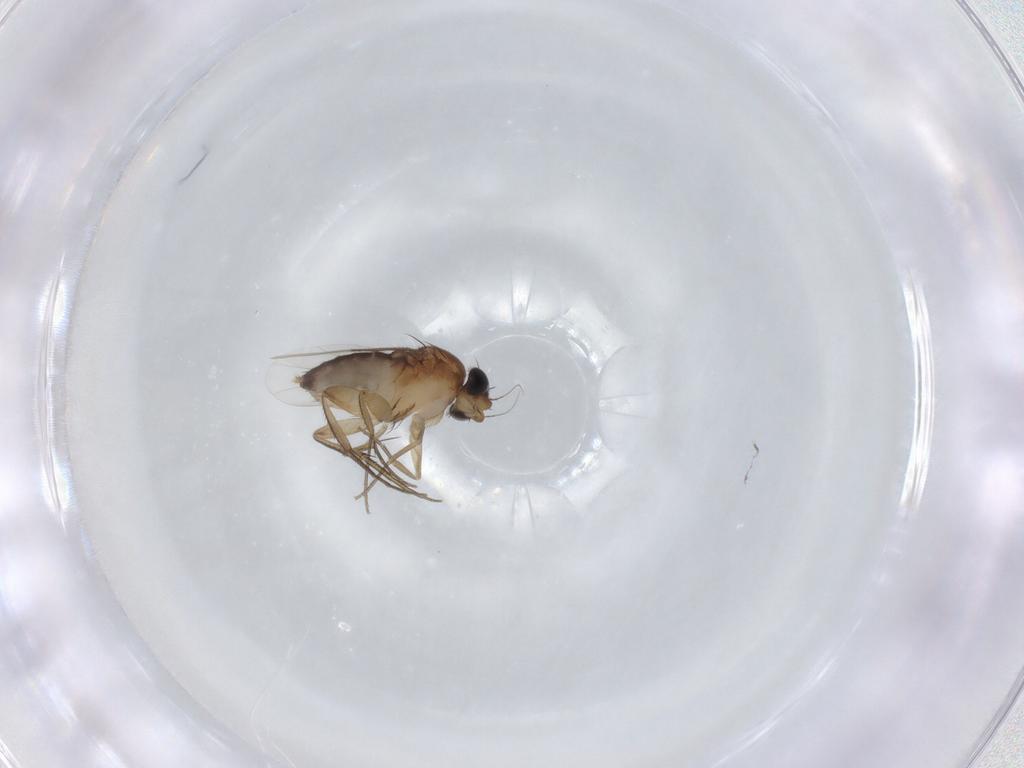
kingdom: Animalia
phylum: Arthropoda
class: Insecta
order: Diptera
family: Phoridae
